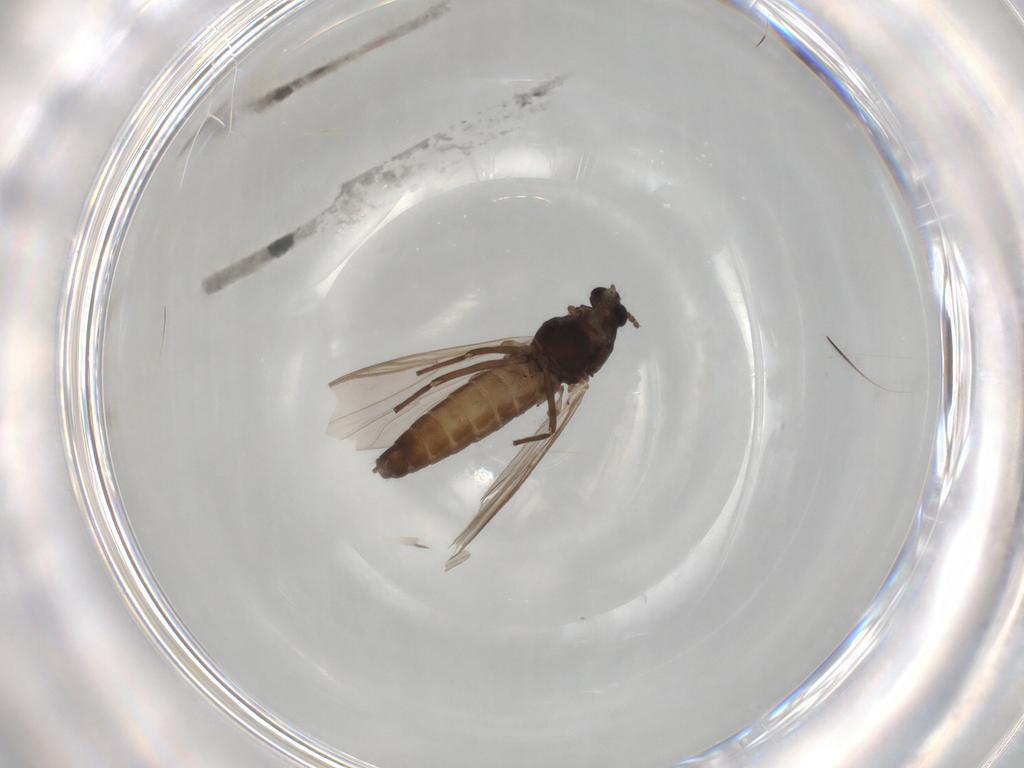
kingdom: Animalia
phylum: Arthropoda
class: Insecta
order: Diptera
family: Chironomidae
